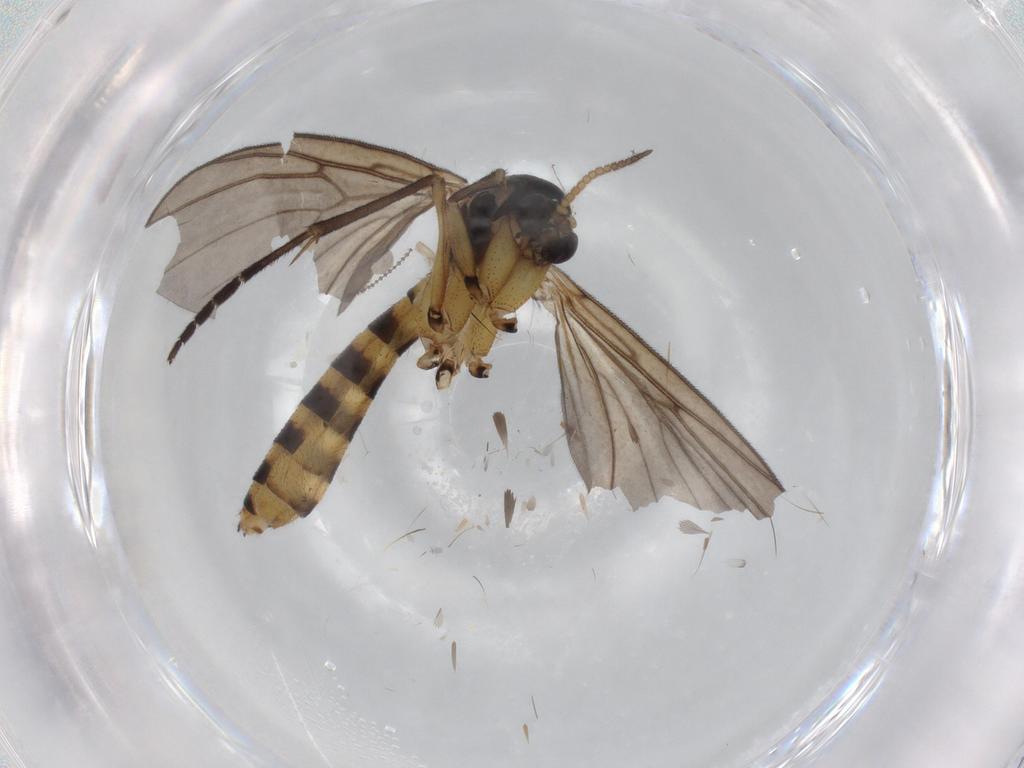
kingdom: Animalia
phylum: Arthropoda
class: Insecta
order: Diptera
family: Mycetophilidae
